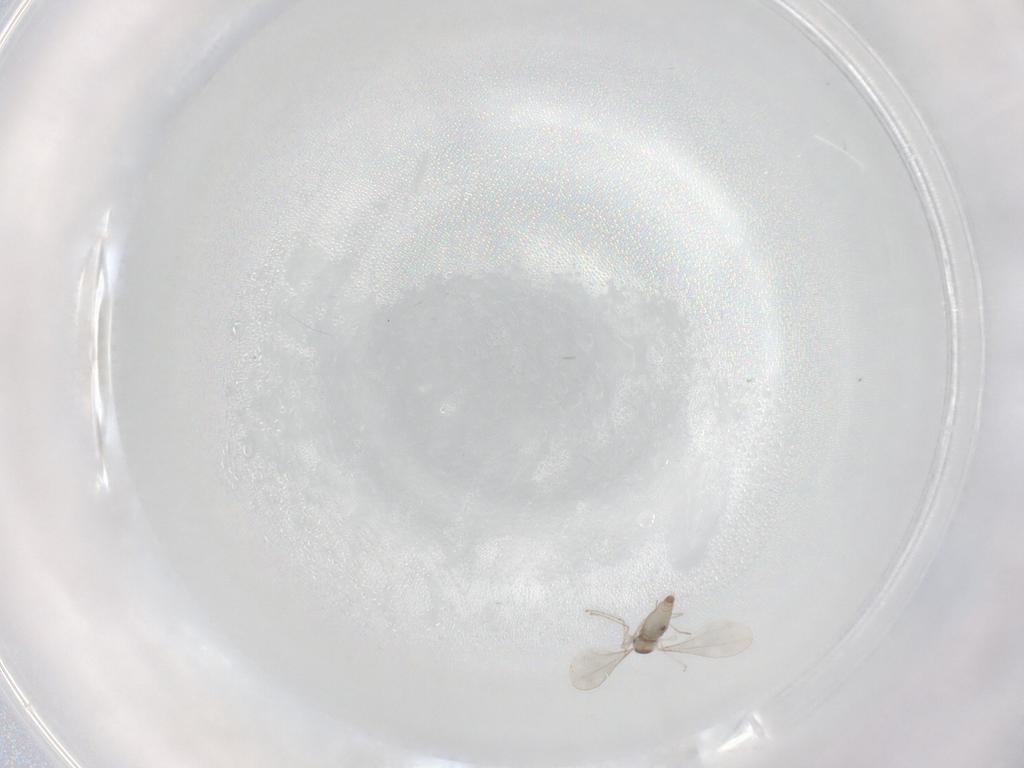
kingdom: Animalia
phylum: Arthropoda
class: Insecta
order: Diptera
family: Cecidomyiidae
